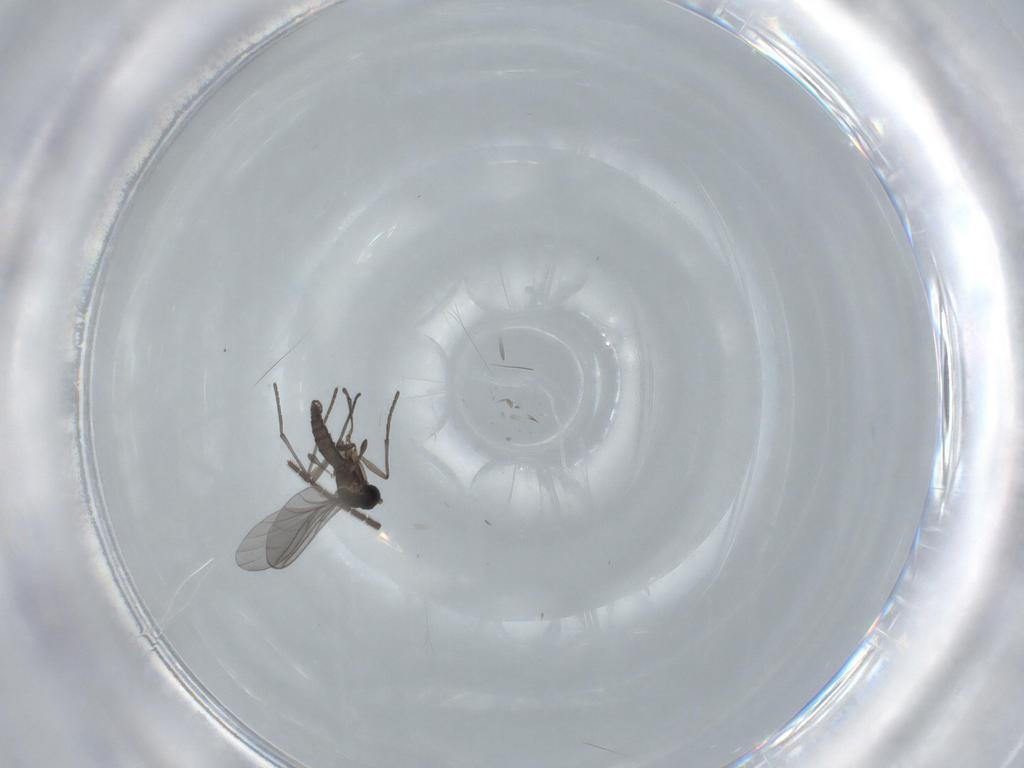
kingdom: Animalia
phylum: Arthropoda
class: Insecta
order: Diptera
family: Sciaridae
